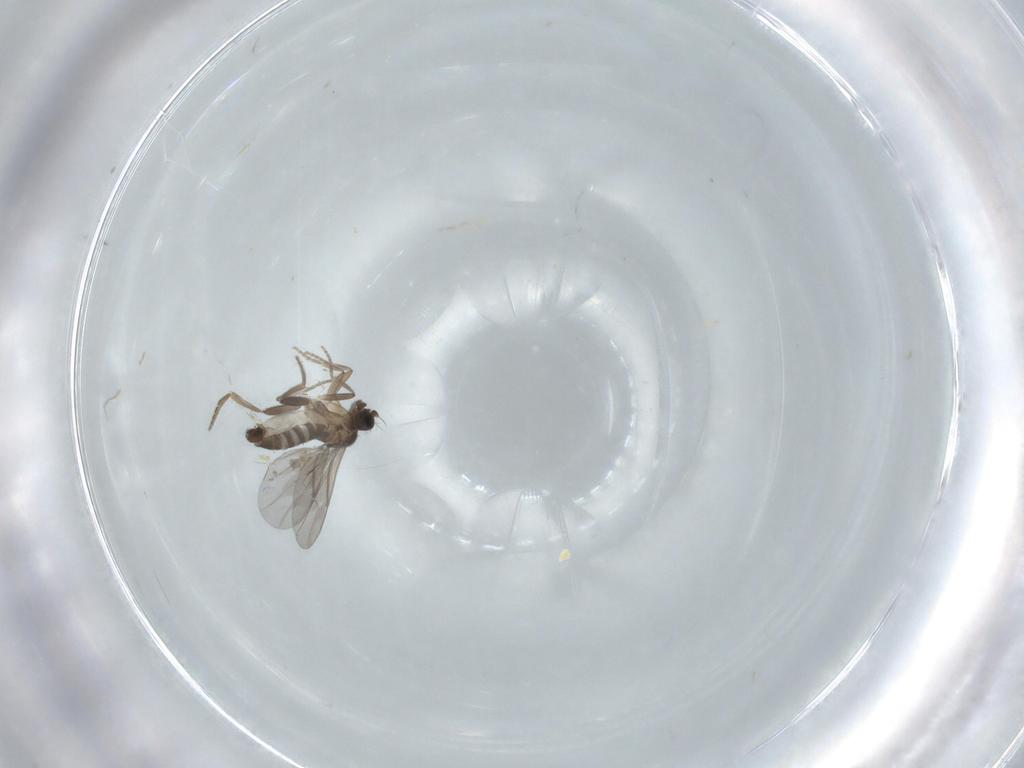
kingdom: Animalia
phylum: Arthropoda
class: Insecta
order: Diptera
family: Chironomidae
